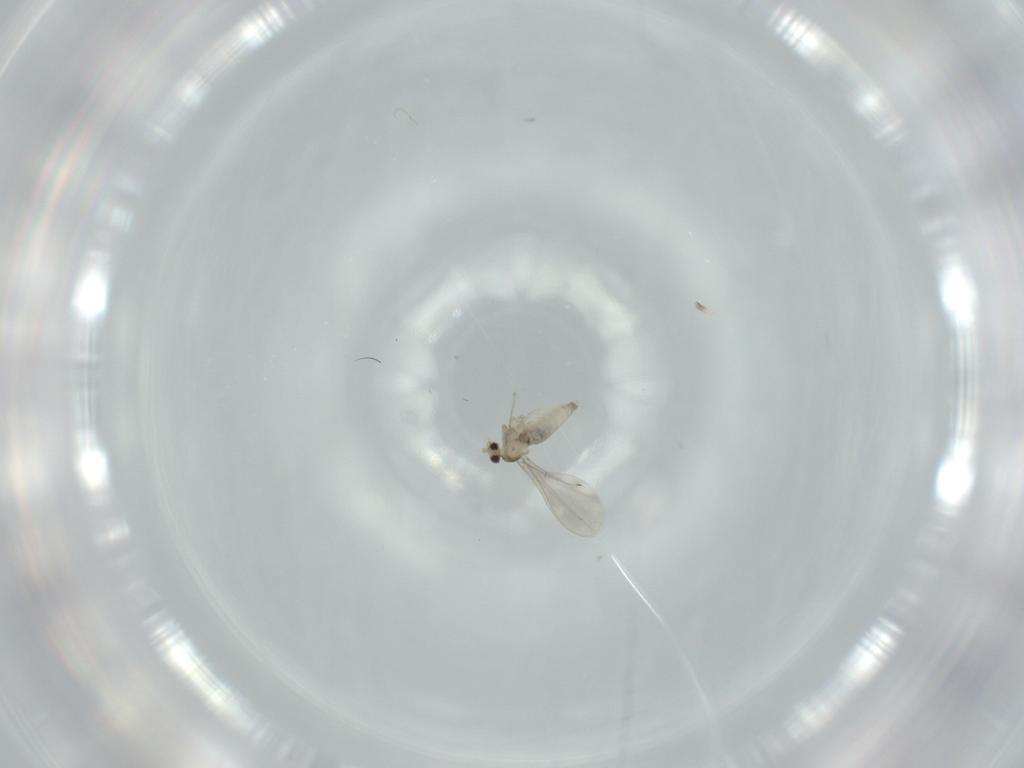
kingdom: Animalia
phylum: Arthropoda
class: Insecta
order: Diptera
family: Cecidomyiidae
